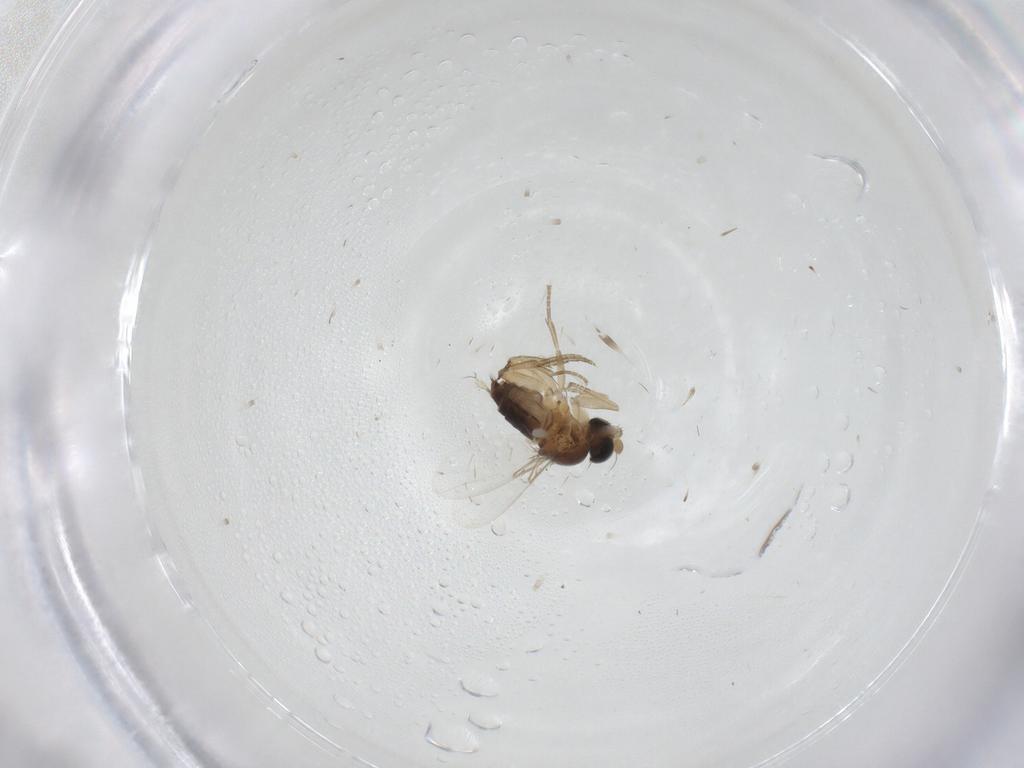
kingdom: Animalia
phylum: Arthropoda
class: Insecta
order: Diptera
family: Phoridae
